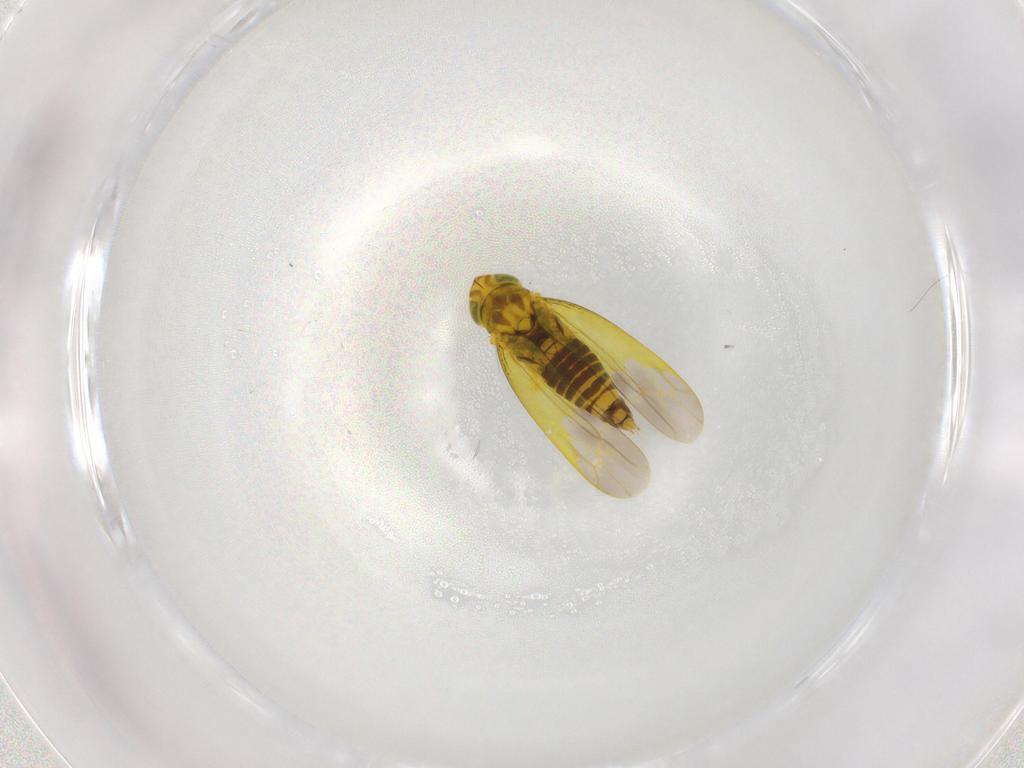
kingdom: Animalia
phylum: Arthropoda
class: Insecta
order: Hemiptera
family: Cicadellidae
